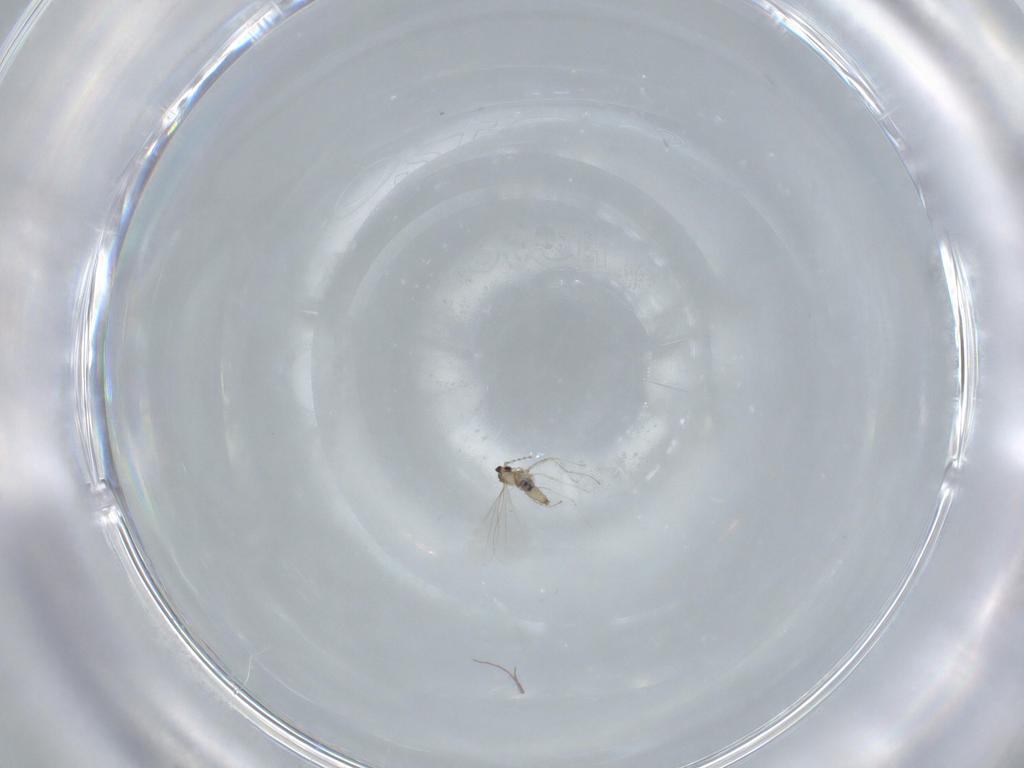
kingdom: Animalia
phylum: Arthropoda
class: Insecta
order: Diptera
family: Cecidomyiidae
